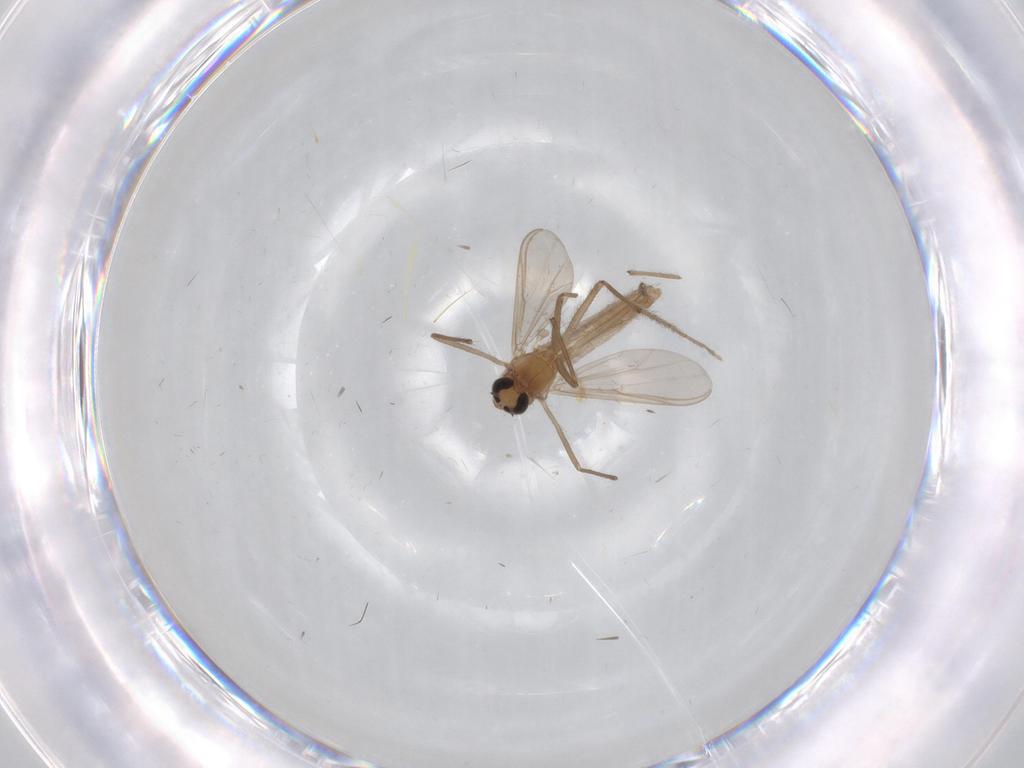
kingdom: Animalia
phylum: Arthropoda
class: Insecta
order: Diptera
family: Chironomidae
